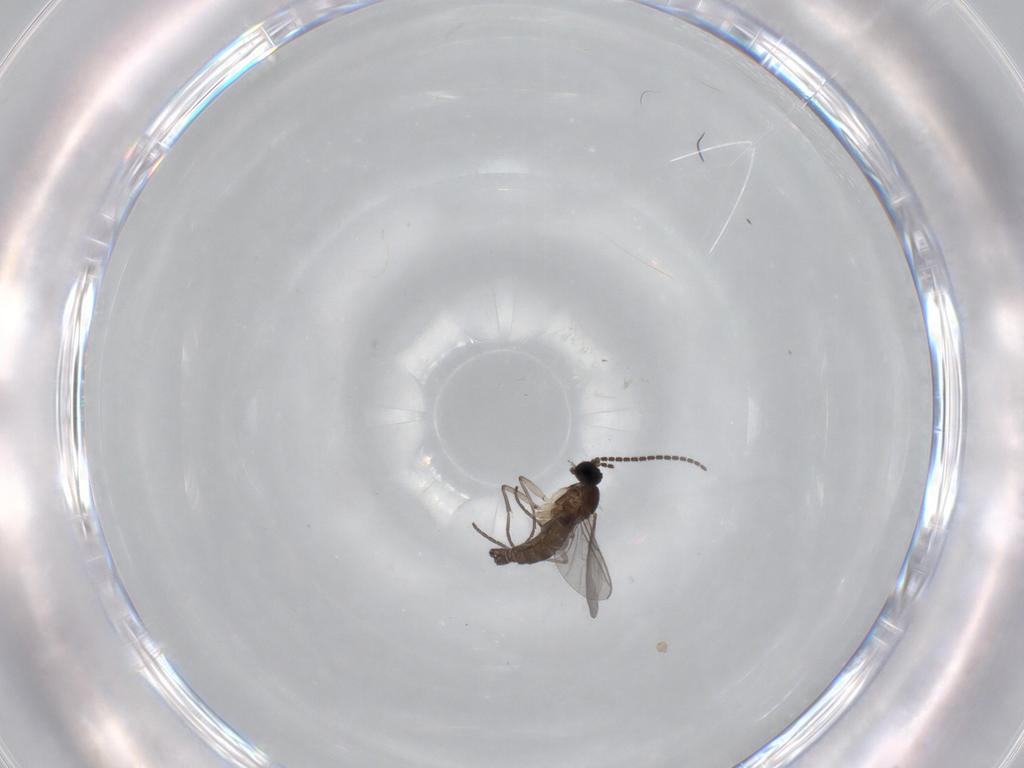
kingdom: Animalia
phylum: Arthropoda
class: Insecta
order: Diptera
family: Sciaridae
